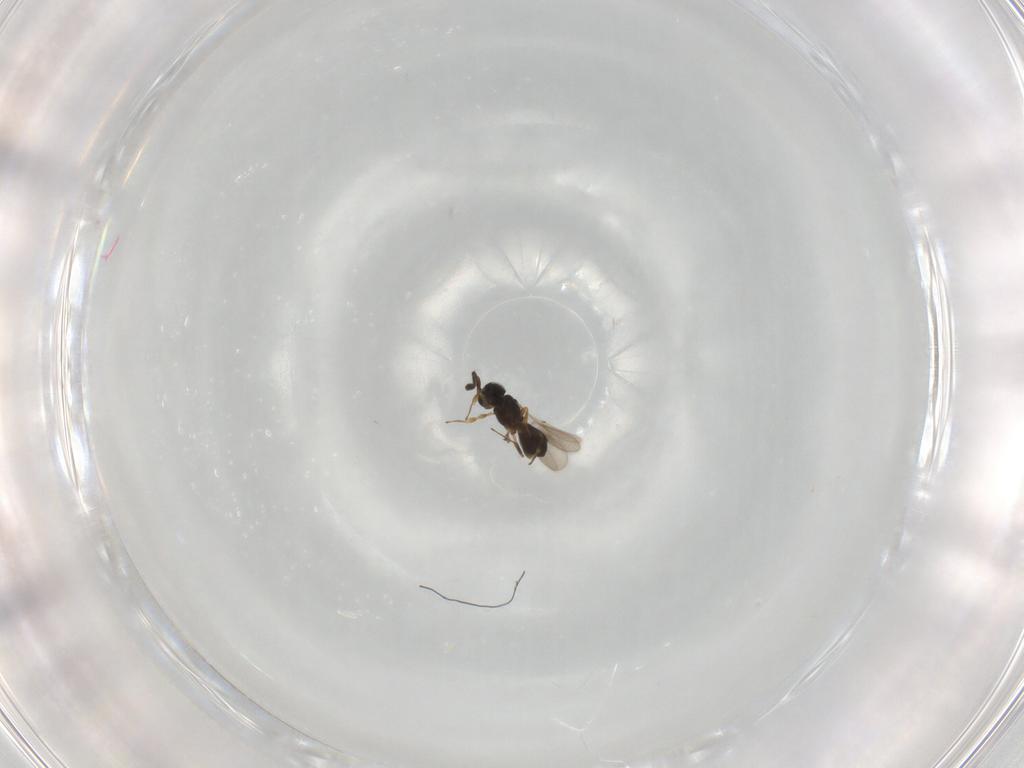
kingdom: Animalia
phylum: Arthropoda
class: Insecta
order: Hymenoptera
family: Scelionidae
